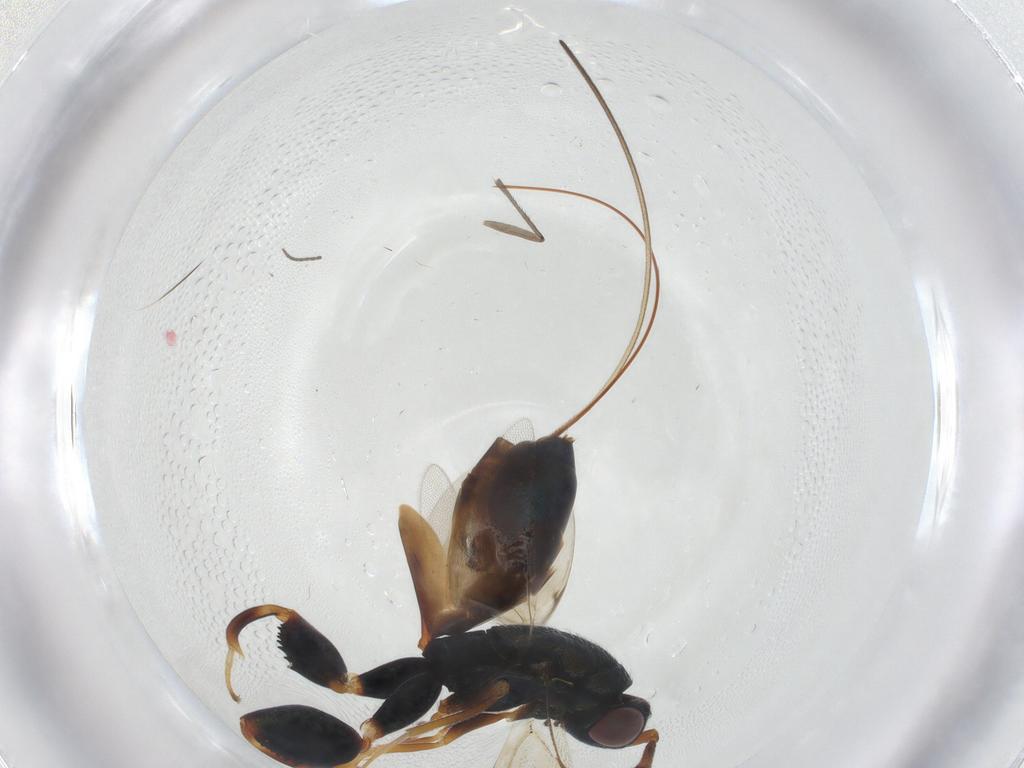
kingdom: Animalia
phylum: Arthropoda
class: Insecta
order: Hymenoptera
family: Torymidae
